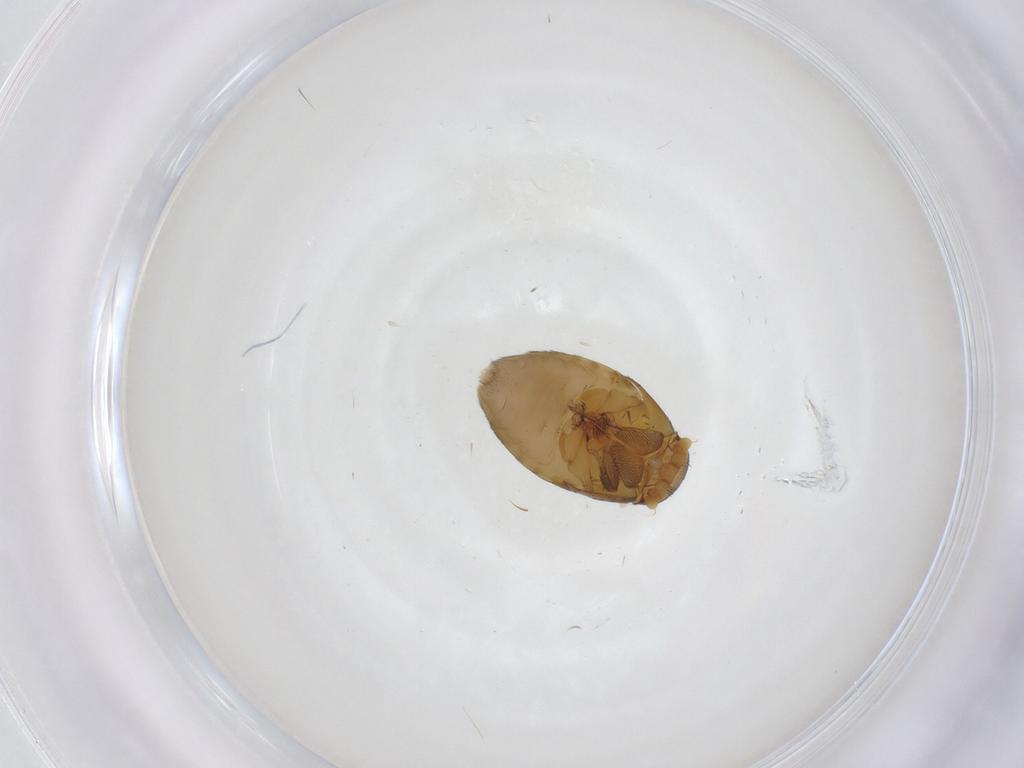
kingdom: Animalia
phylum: Arthropoda
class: Insecta
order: Diptera
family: Phoridae
